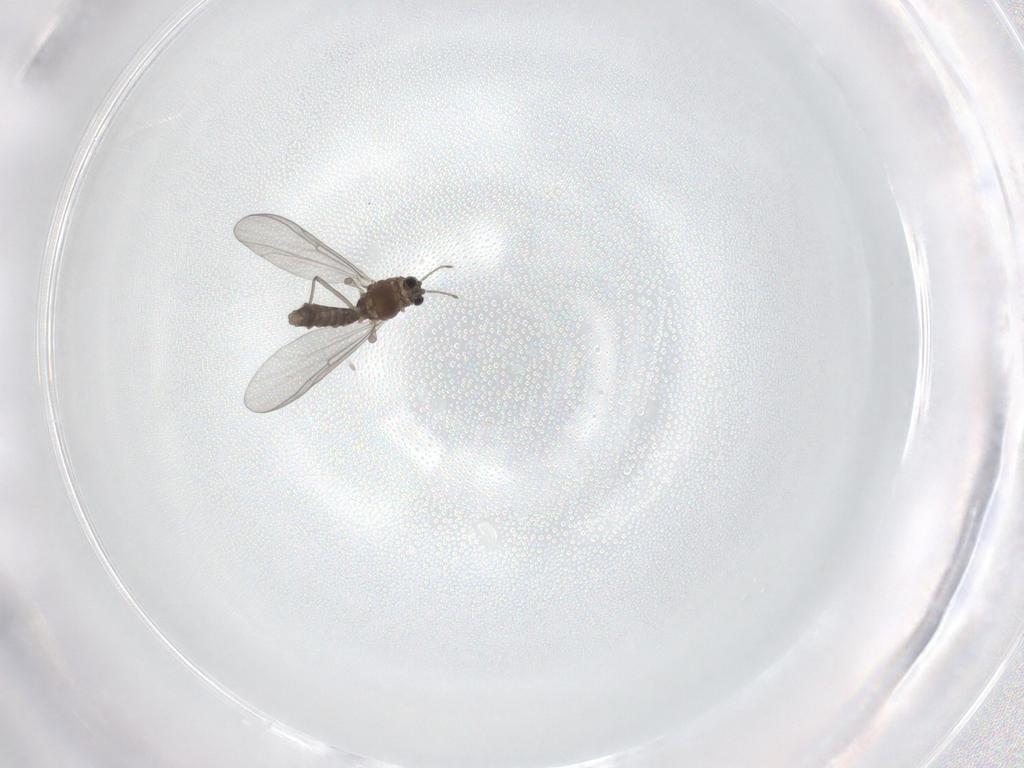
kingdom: Animalia
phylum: Arthropoda
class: Insecta
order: Diptera
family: Chironomidae
